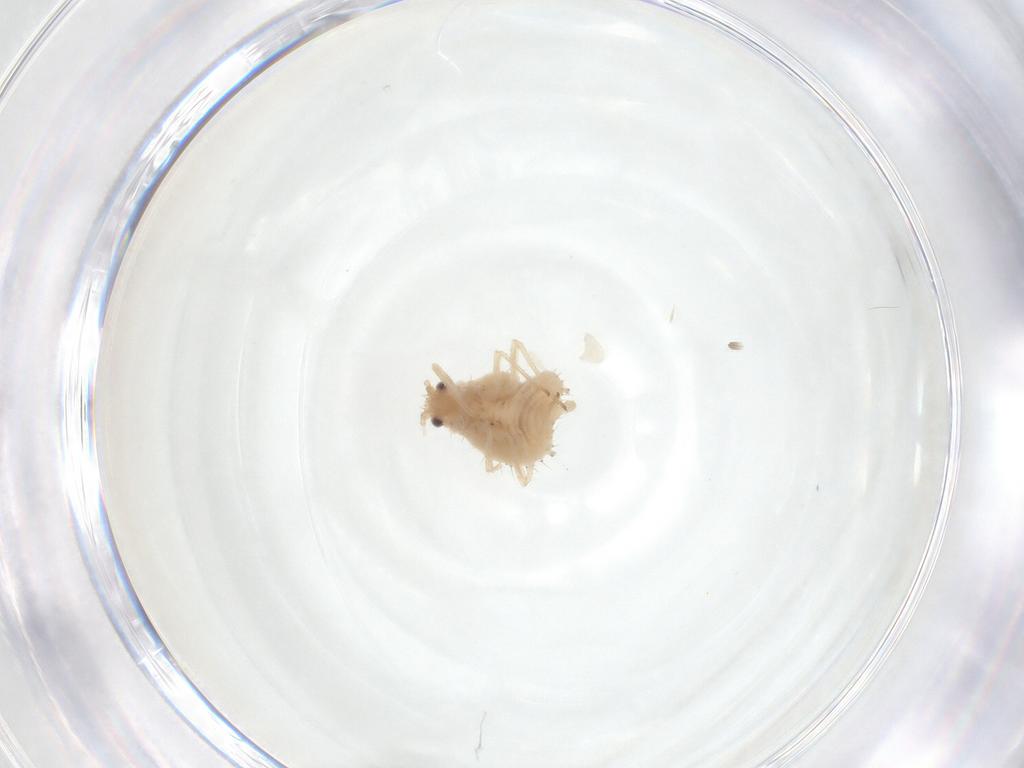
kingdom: Animalia
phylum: Arthropoda
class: Insecta
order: Hemiptera
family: Aphididae
